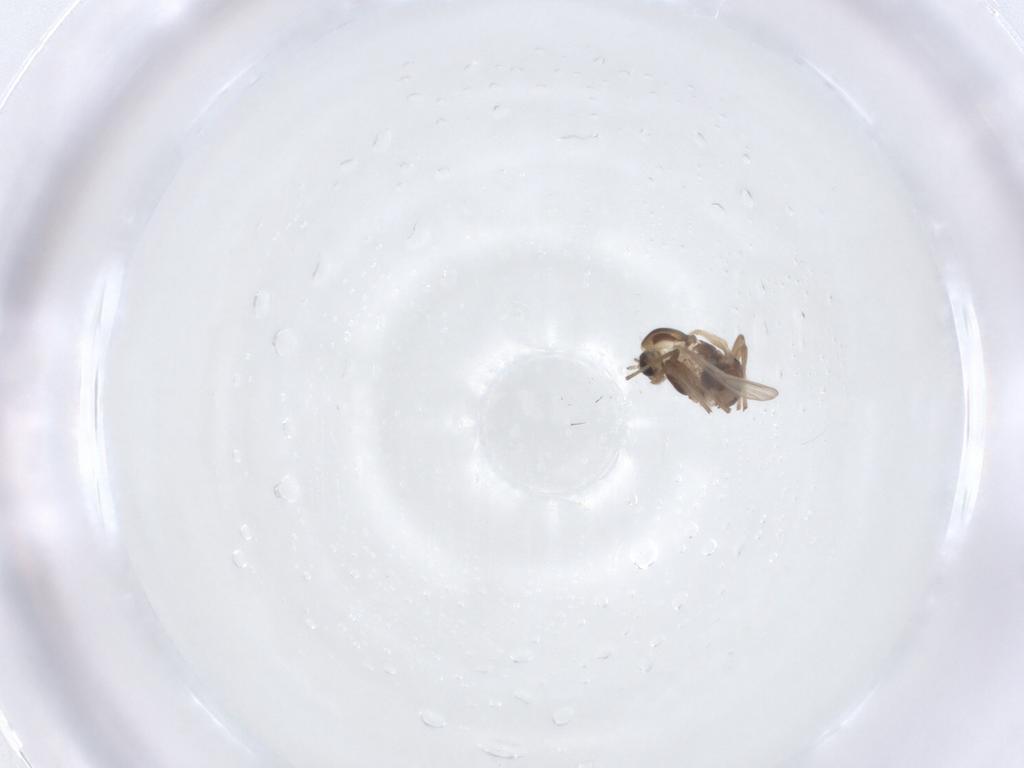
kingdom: Animalia
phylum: Arthropoda
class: Insecta
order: Diptera
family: Chironomidae
